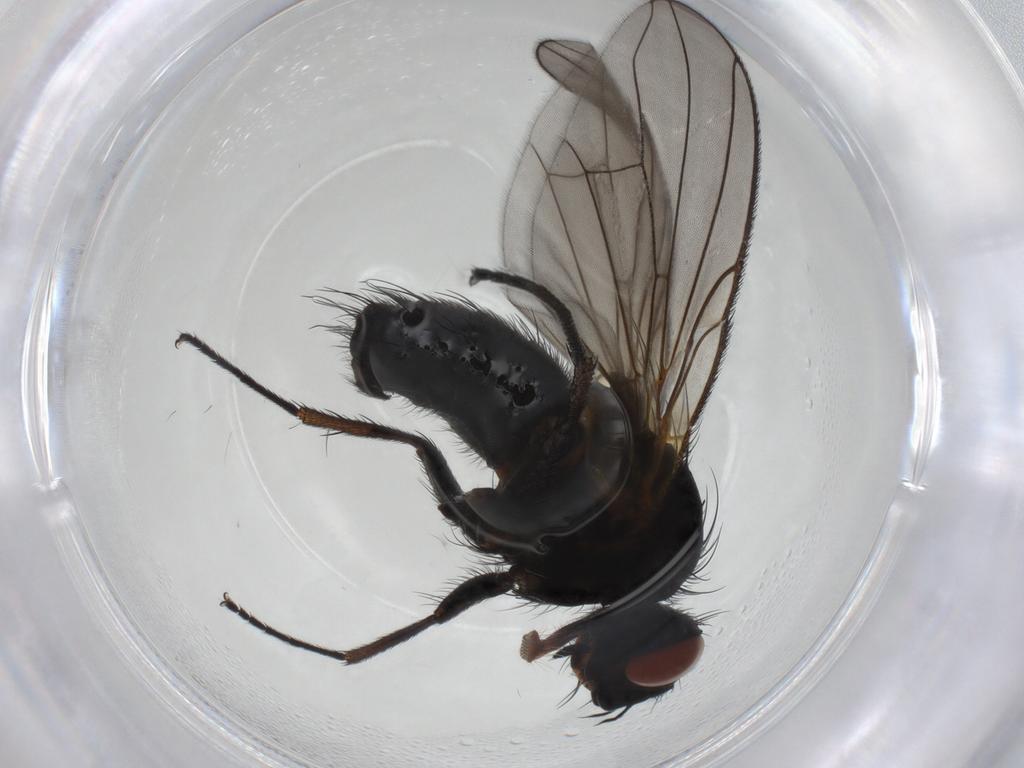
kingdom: Animalia
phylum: Arthropoda
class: Insecta
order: Diptera
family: Tachinidae
